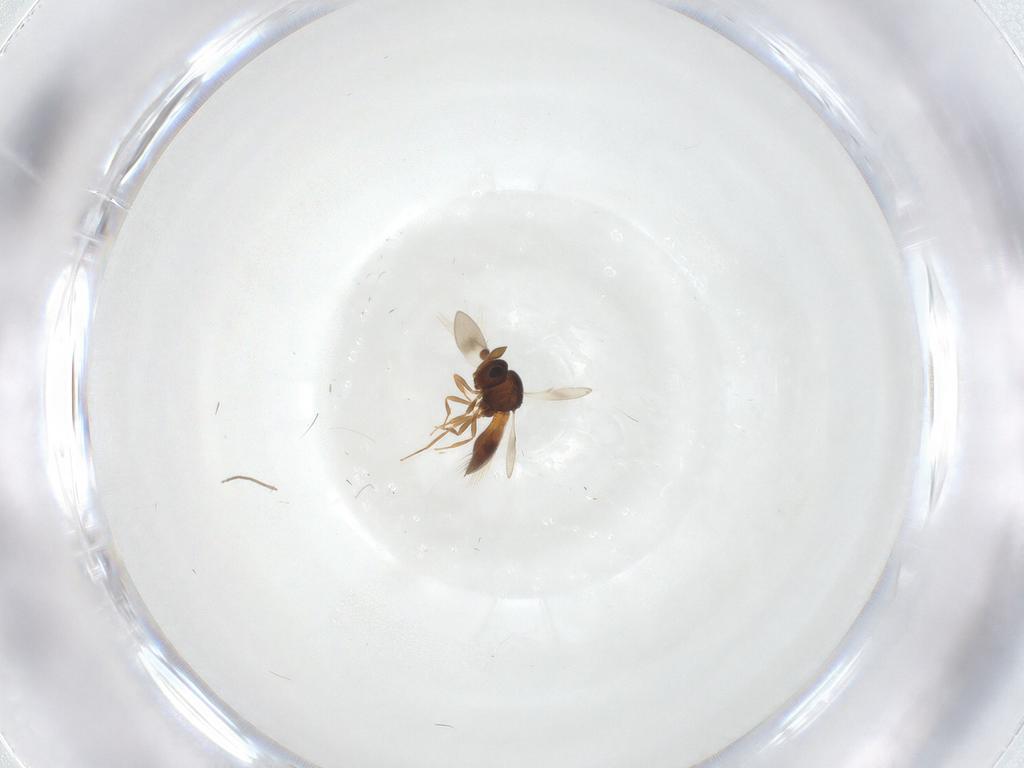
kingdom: Animalia
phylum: Arthropoda
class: Insecta
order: Hymenoptera
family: Scelionidae
